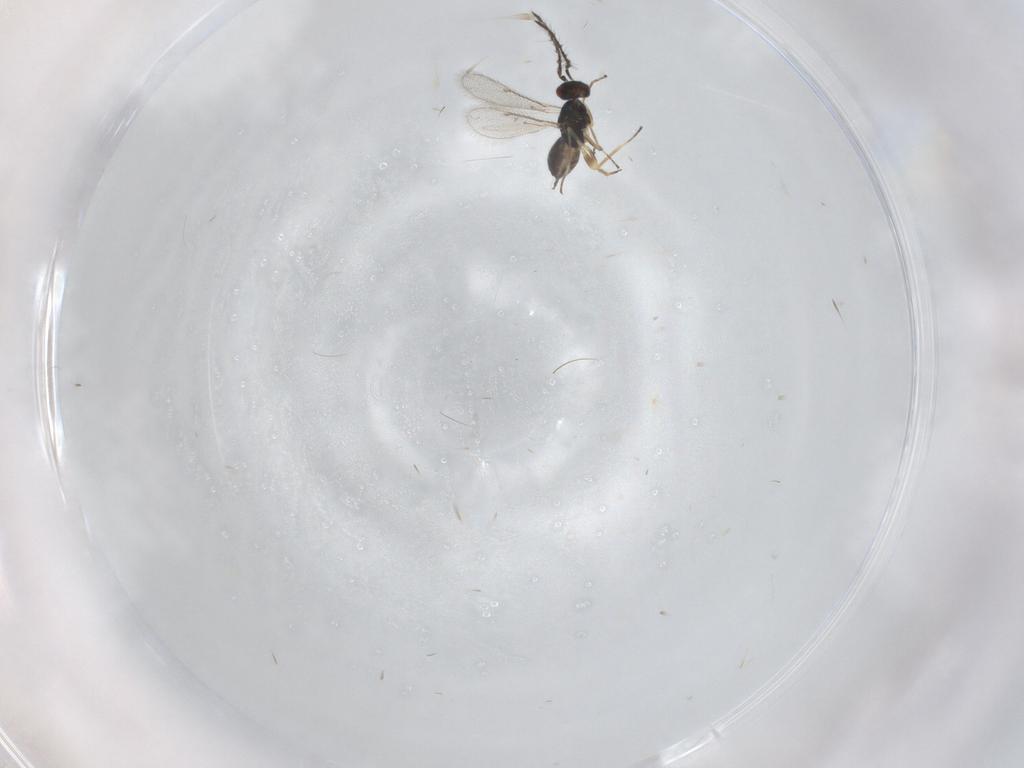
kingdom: Animalia
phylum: Arthropoda
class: Insecta
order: Hymenoptera
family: Eulophidae
